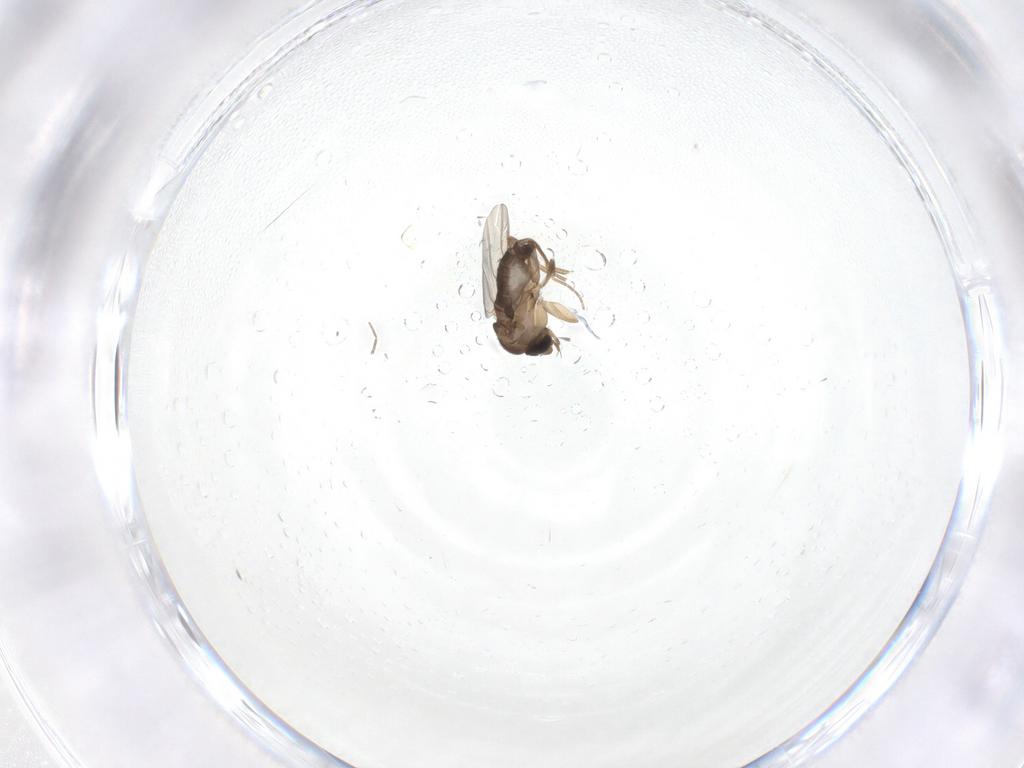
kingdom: Animalia
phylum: Arthropoda
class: Insecta
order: Diptera
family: Phoridae
